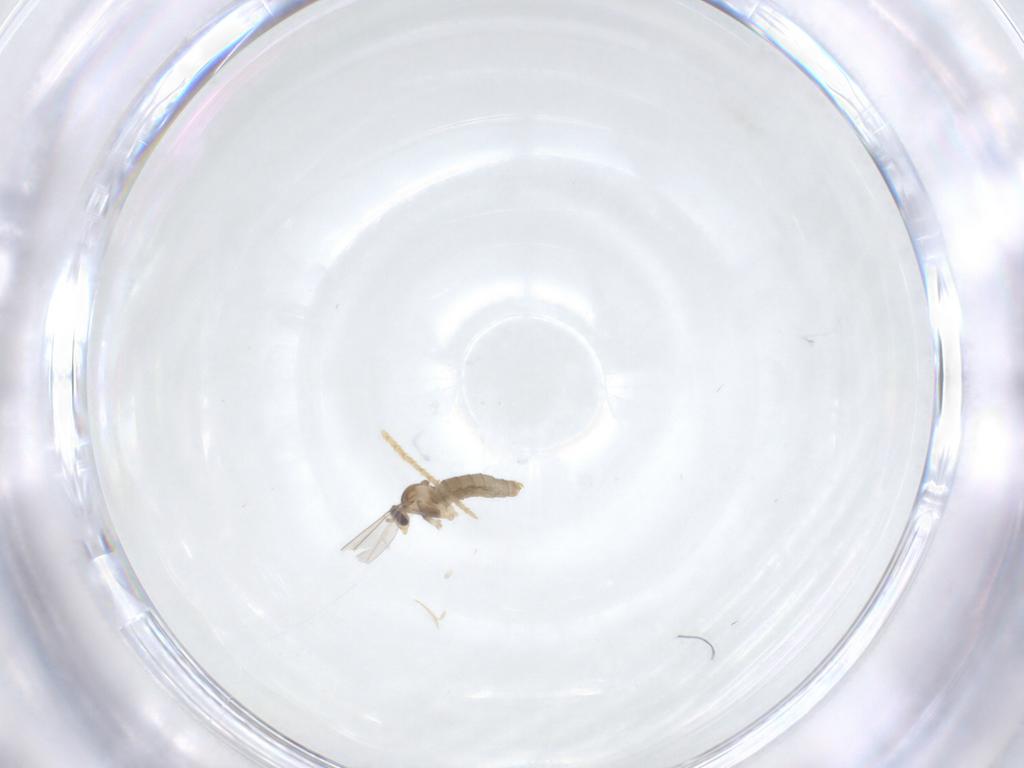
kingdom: Animalia
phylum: Arthropoda
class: Insecta
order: Diptera
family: Cecidomyiidae
